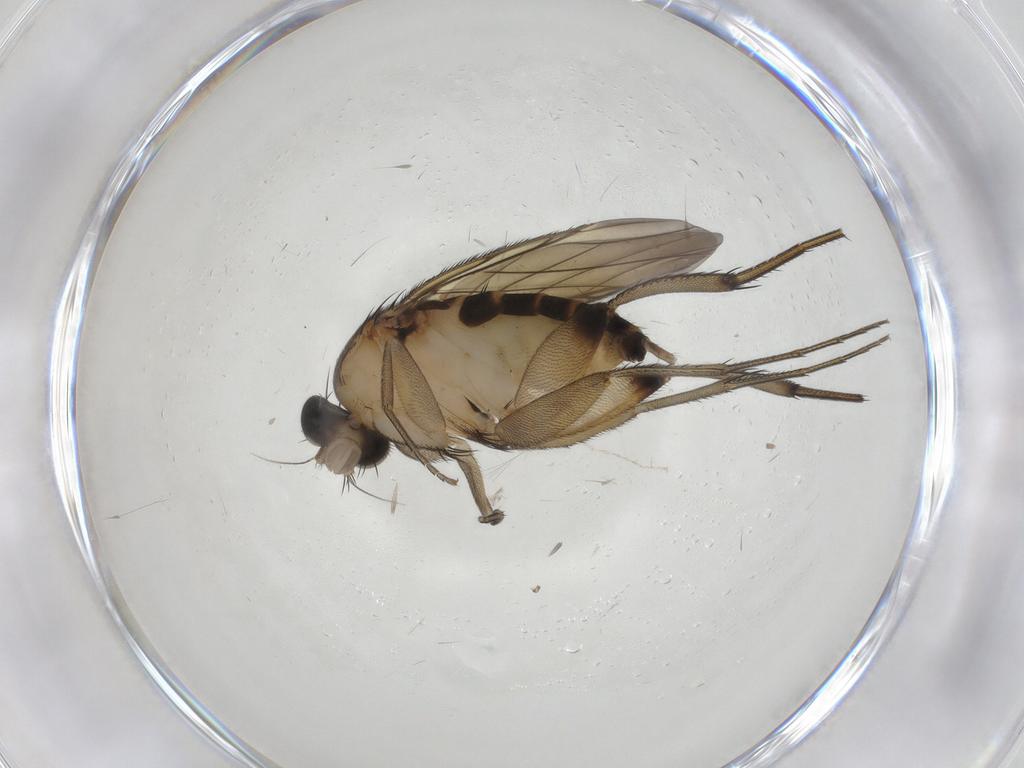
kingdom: Animalia
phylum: Arthropoda
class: Insecta
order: Diptera
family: Phoridae
